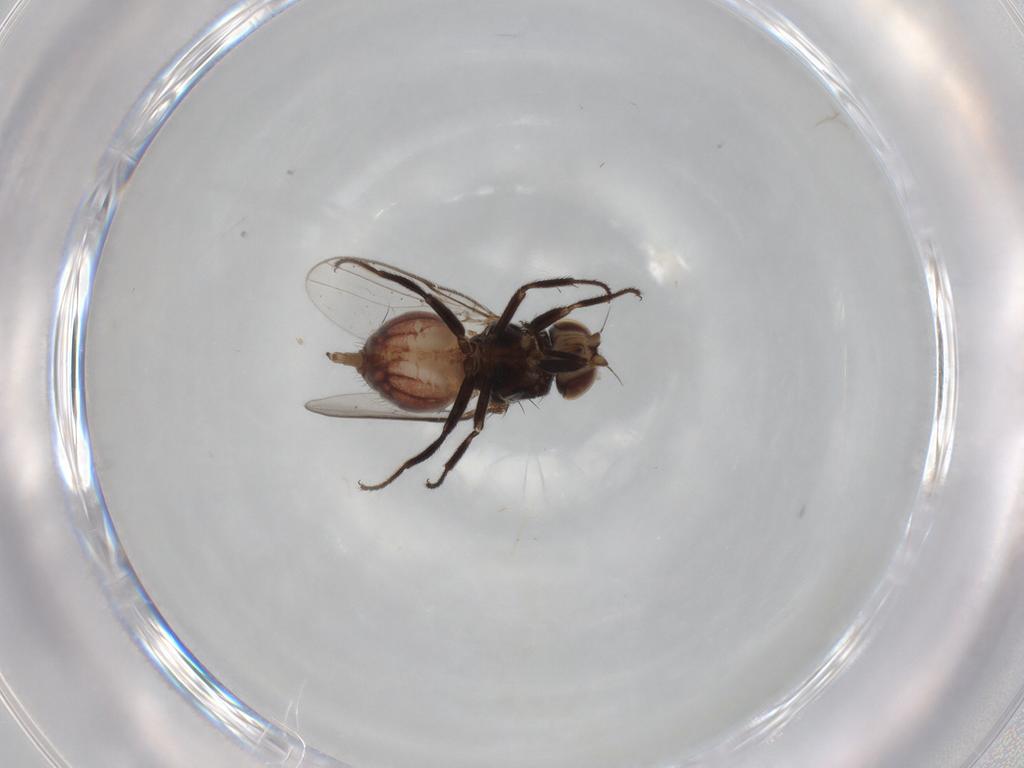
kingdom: Animalia
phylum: Arthropoda
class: Insecta
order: Diptera
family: Chloropidae
